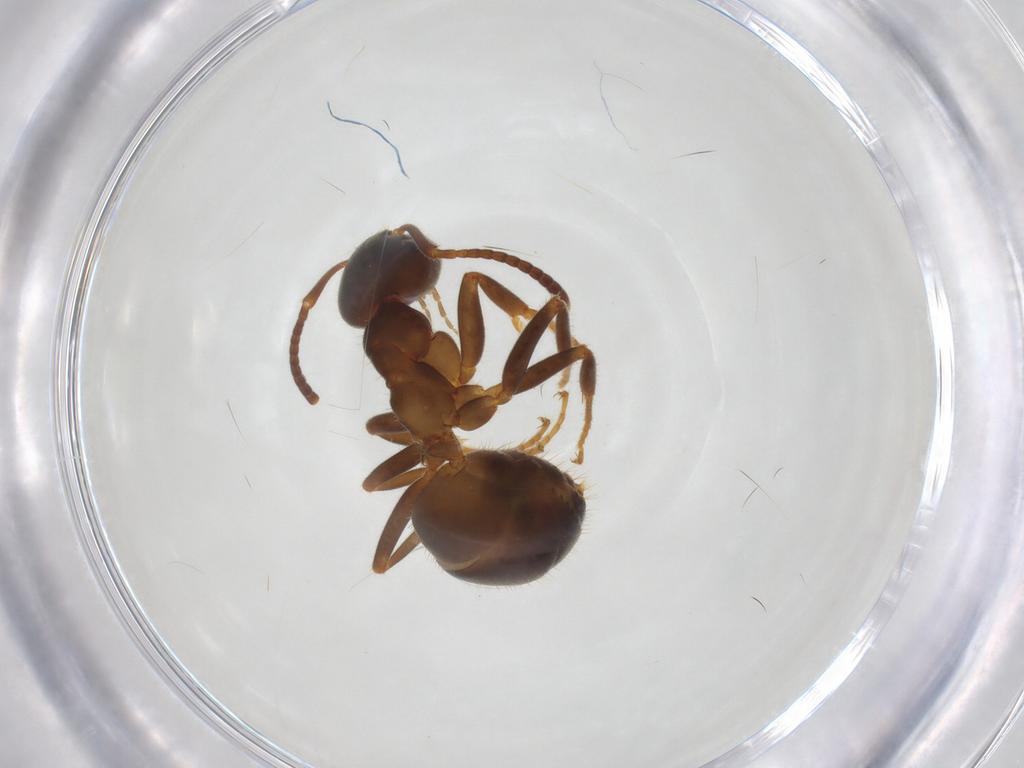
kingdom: Animalia
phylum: Arthropoda
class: Insecta
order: Hymenoptera
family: Formicidae
